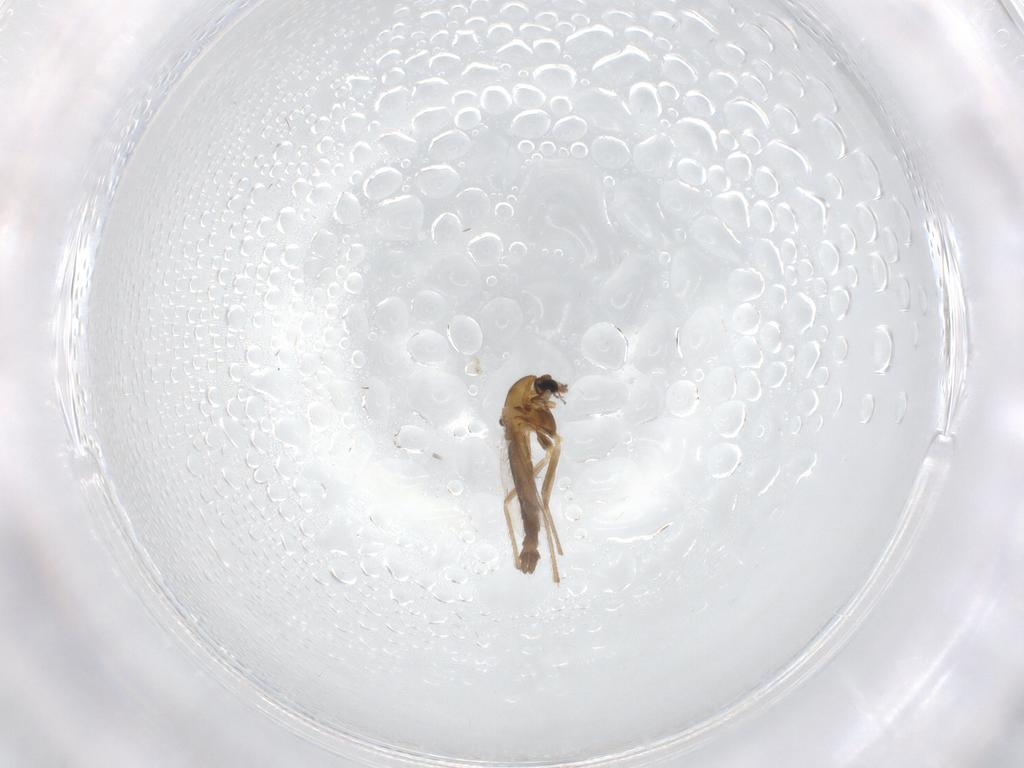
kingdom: Animalia
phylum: Arthropoda
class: Insecta
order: Diptera
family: Chironomidae
